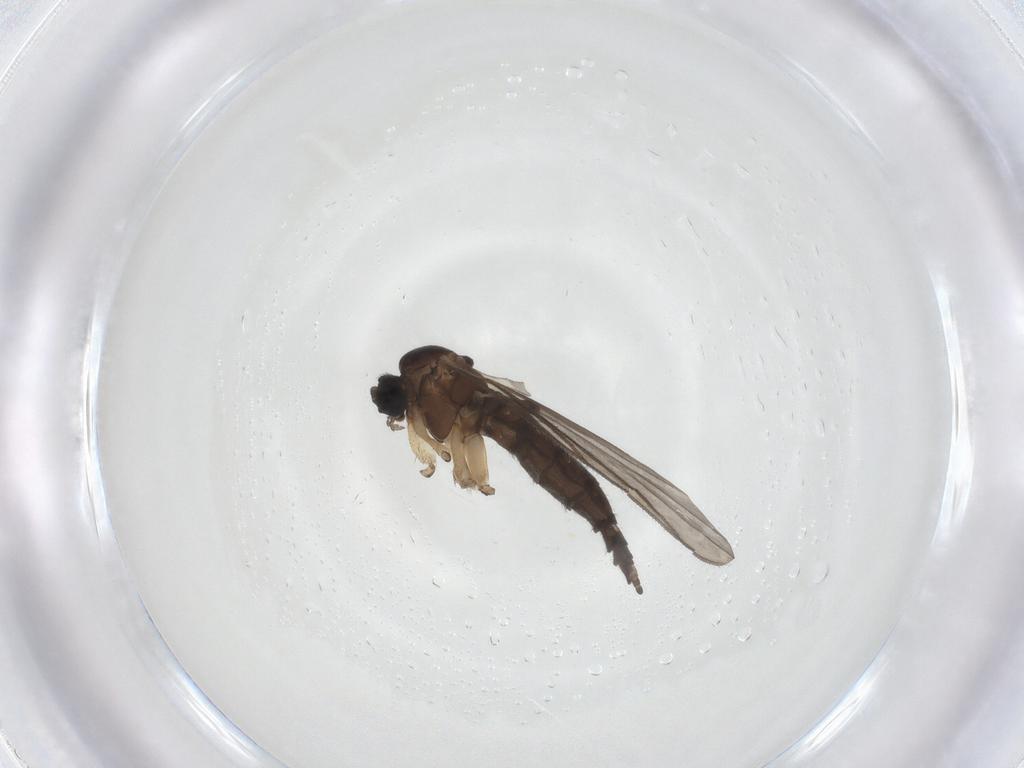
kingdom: Animalia
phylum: Arthropoda
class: Insecta
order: Diptera
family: Sciaridae
